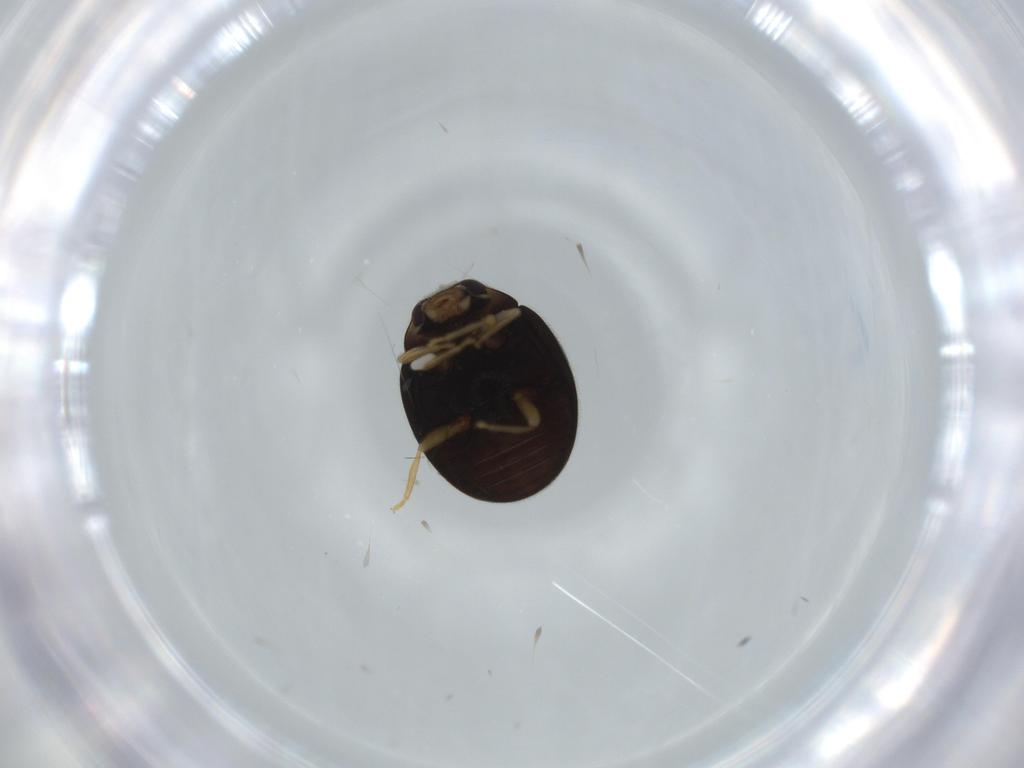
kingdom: Animalia
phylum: Arthropoda
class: Insecta
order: Coleoptera
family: Coccinellidae
